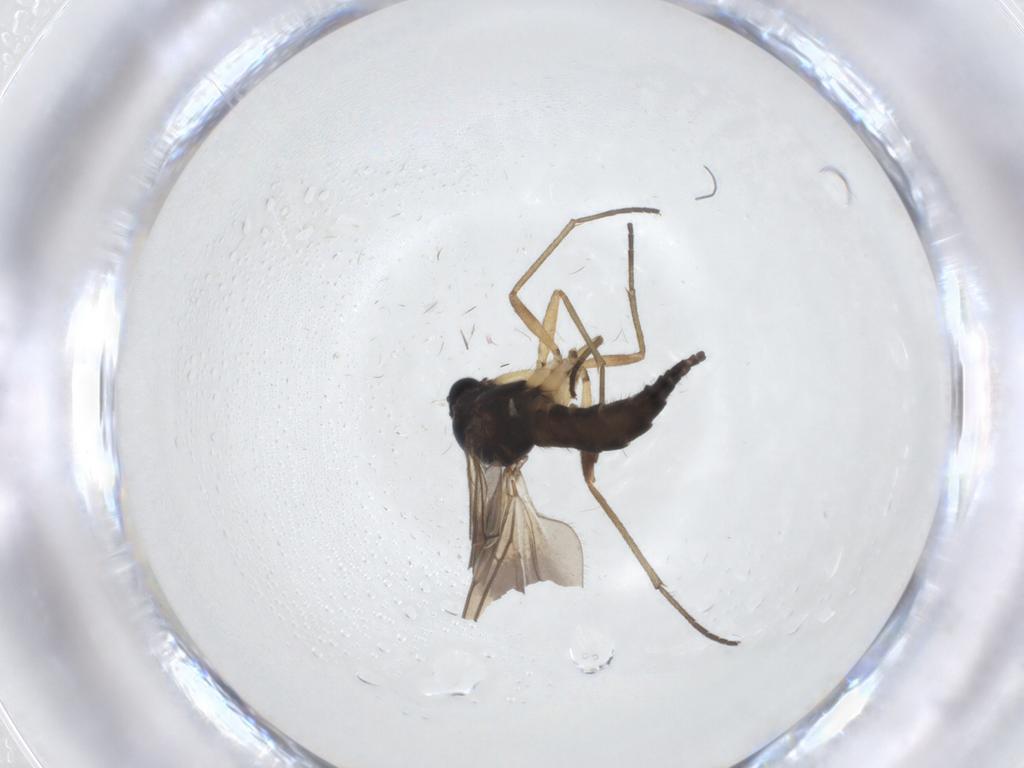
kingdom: Animalia
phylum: Arthropoda
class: Insecta
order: Diptera
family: Sciaridae
